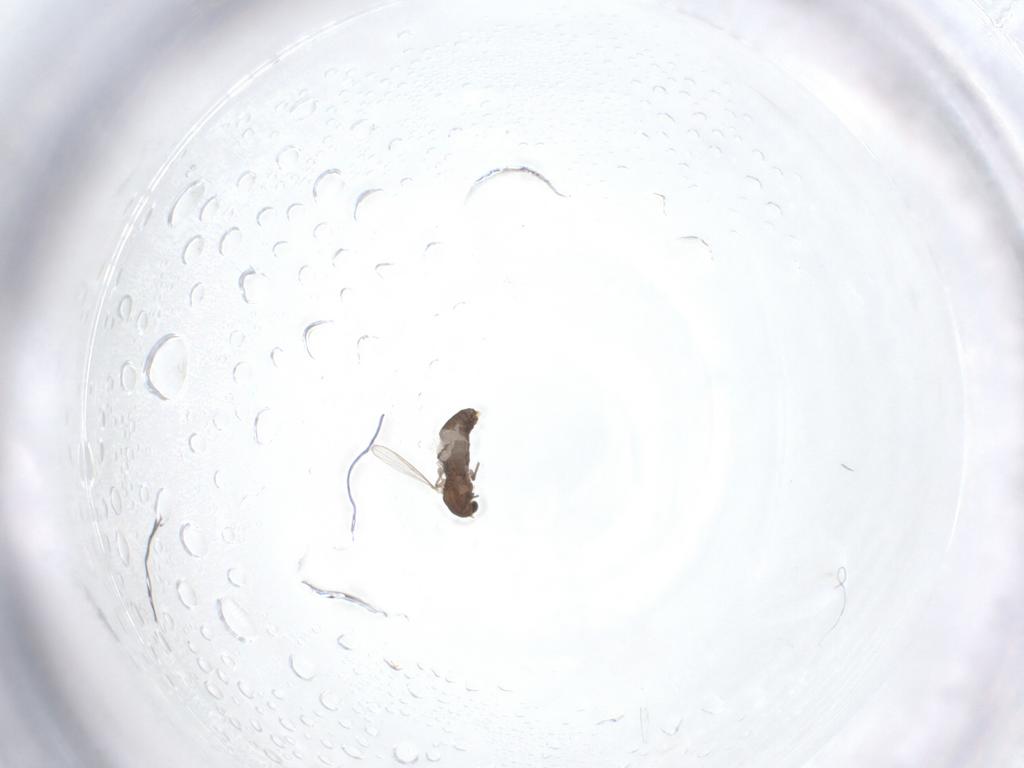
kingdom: Animalia
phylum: Arthropoda
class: Insecta
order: Diptera
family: Chironomidae
